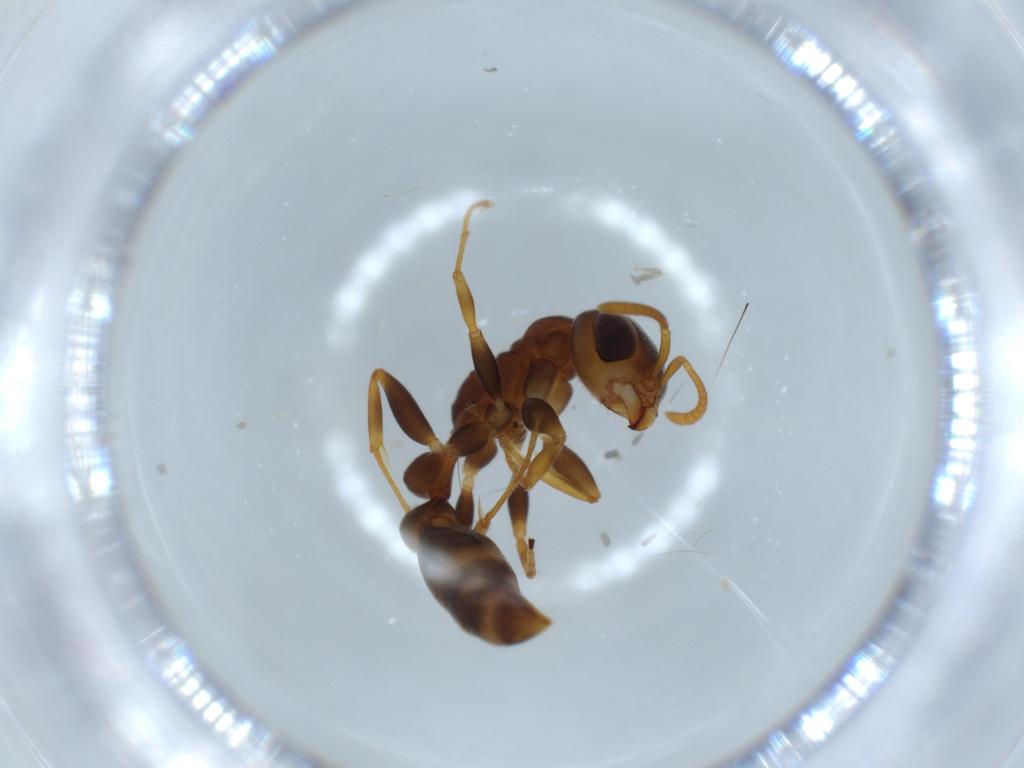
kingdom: Animalia
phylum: Arthropoda
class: Insecta
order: Hymenoptera
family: Formicidae
